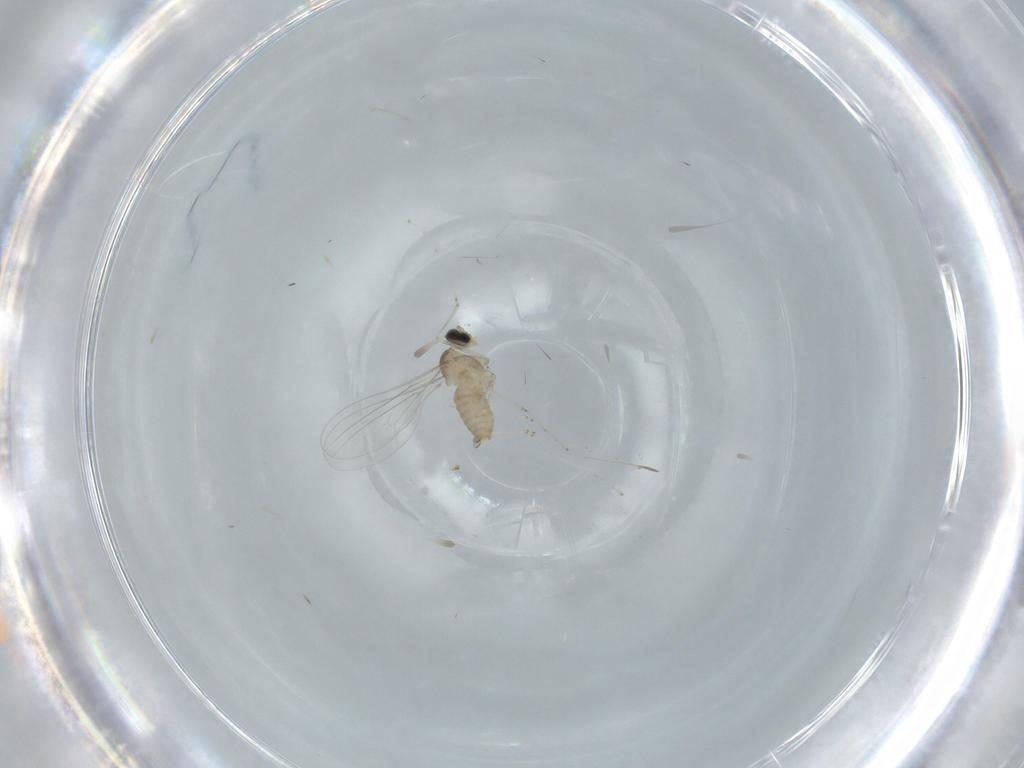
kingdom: Animalia
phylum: Arthropoda
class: Insecta
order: Diptera
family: Cecidomyiidae
